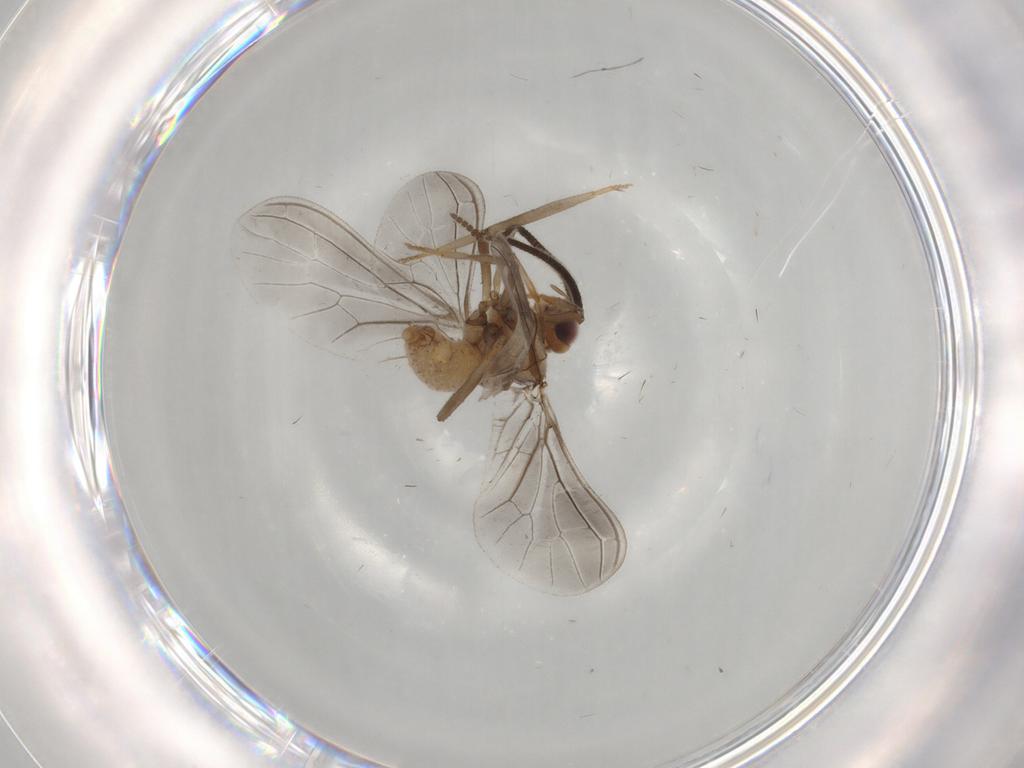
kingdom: Animalia
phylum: Arthropoda
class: Insecta
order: Neuroptera
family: Coniopterygidae
